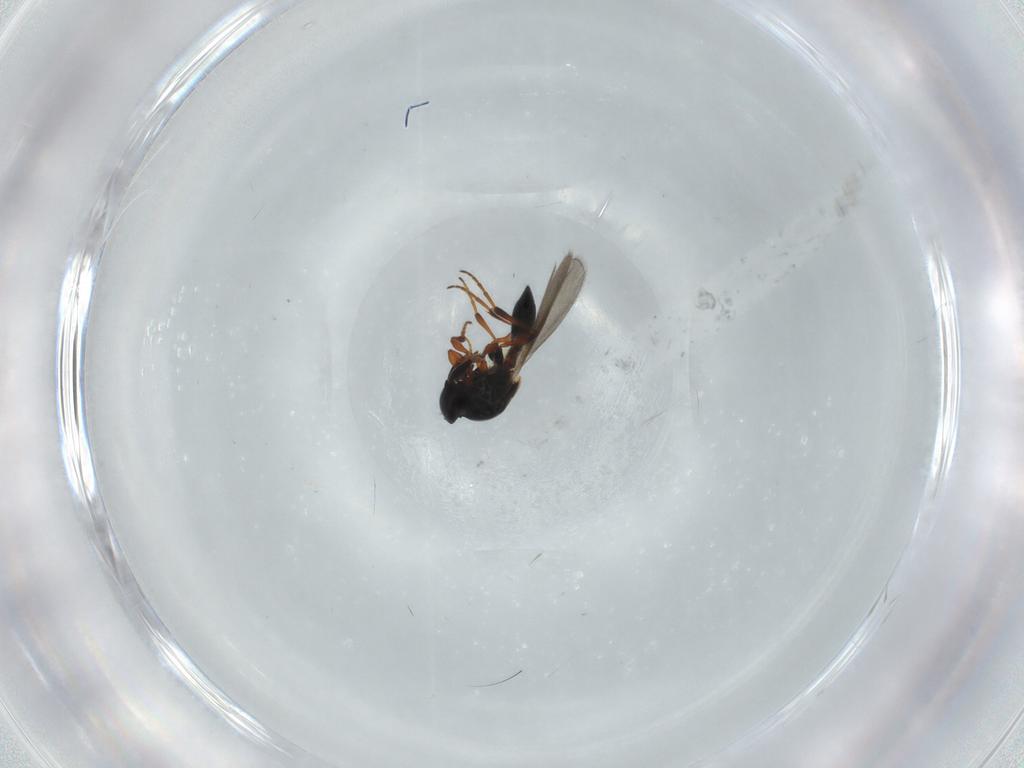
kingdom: Animalia
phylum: Arthropoda
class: Insecta
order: Hymenoptera
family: Platygastridae
